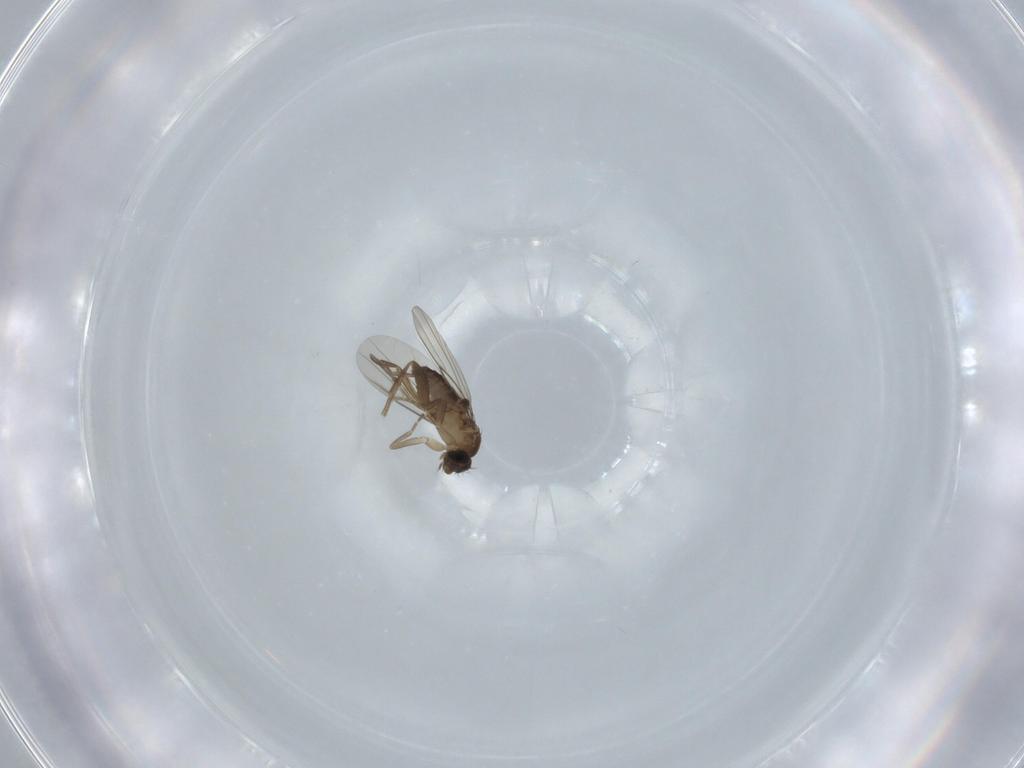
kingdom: Animalia
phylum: Arthropoda
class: Insecta
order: Diptera
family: Phoridae
